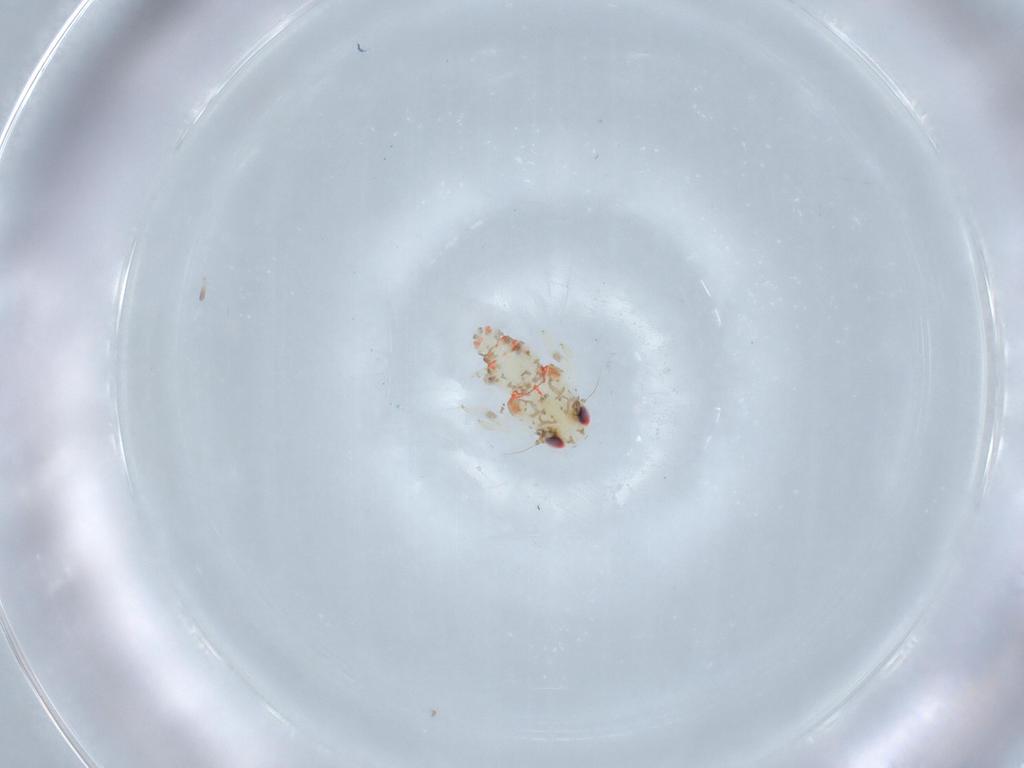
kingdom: Animalia
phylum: Arthropoda
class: Insecta
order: Hemiptera
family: Nogodinidae
